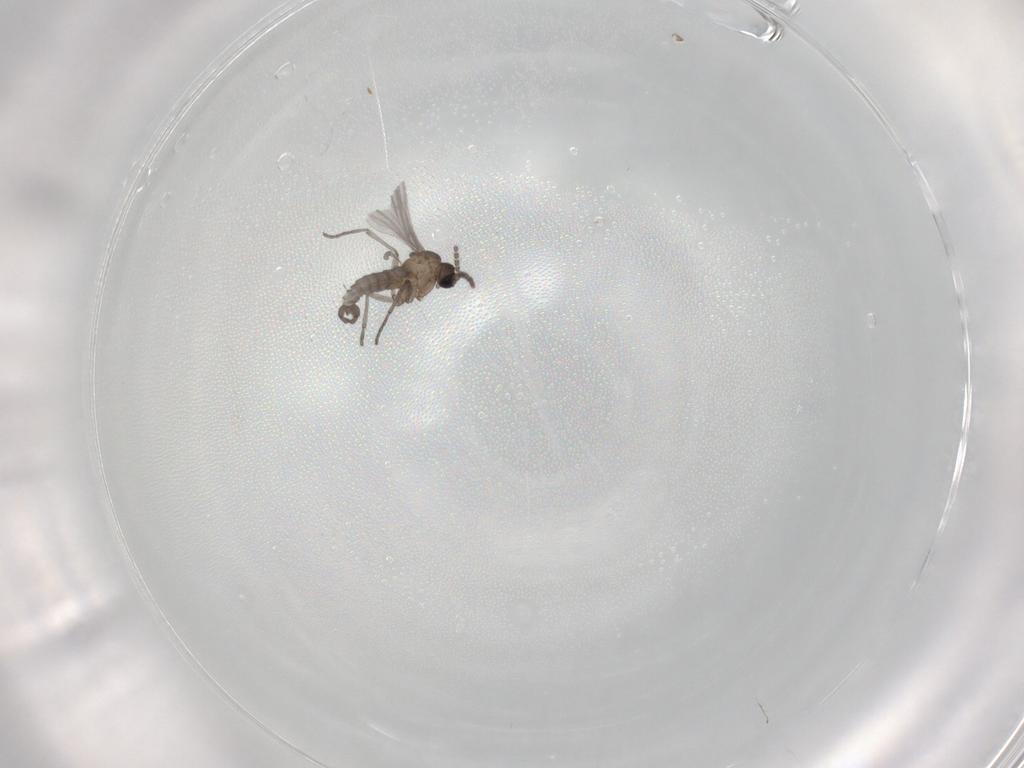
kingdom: Animalia
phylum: Arthropoda
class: Insecta
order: Diptera
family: Sciaridae
